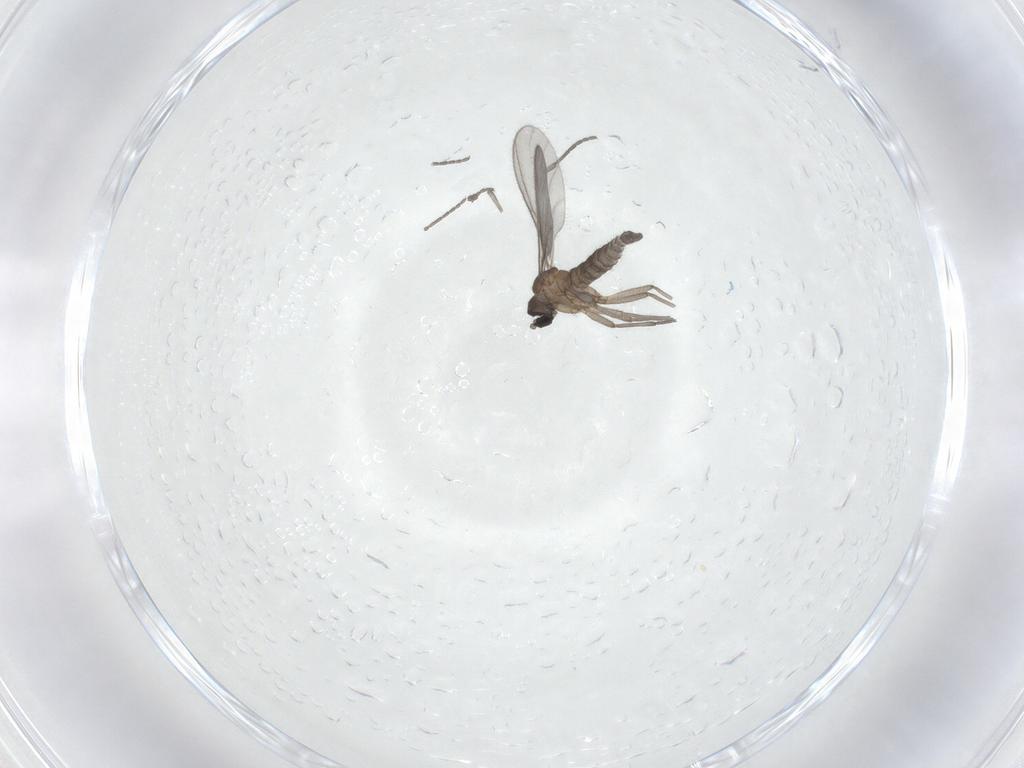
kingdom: Animalia
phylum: Arthropoda
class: Insecta
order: Diptera
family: Sciaridae
